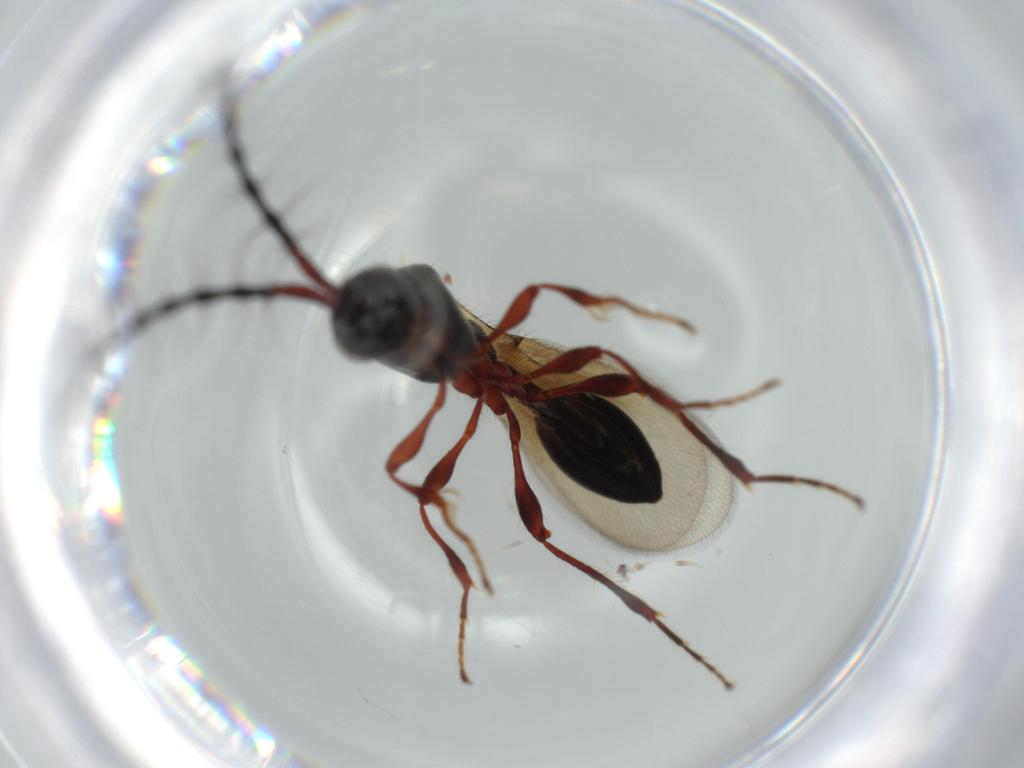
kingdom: Animalia
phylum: Arthropoda
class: Insecta
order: Hymenoptera
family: Diapriidae
